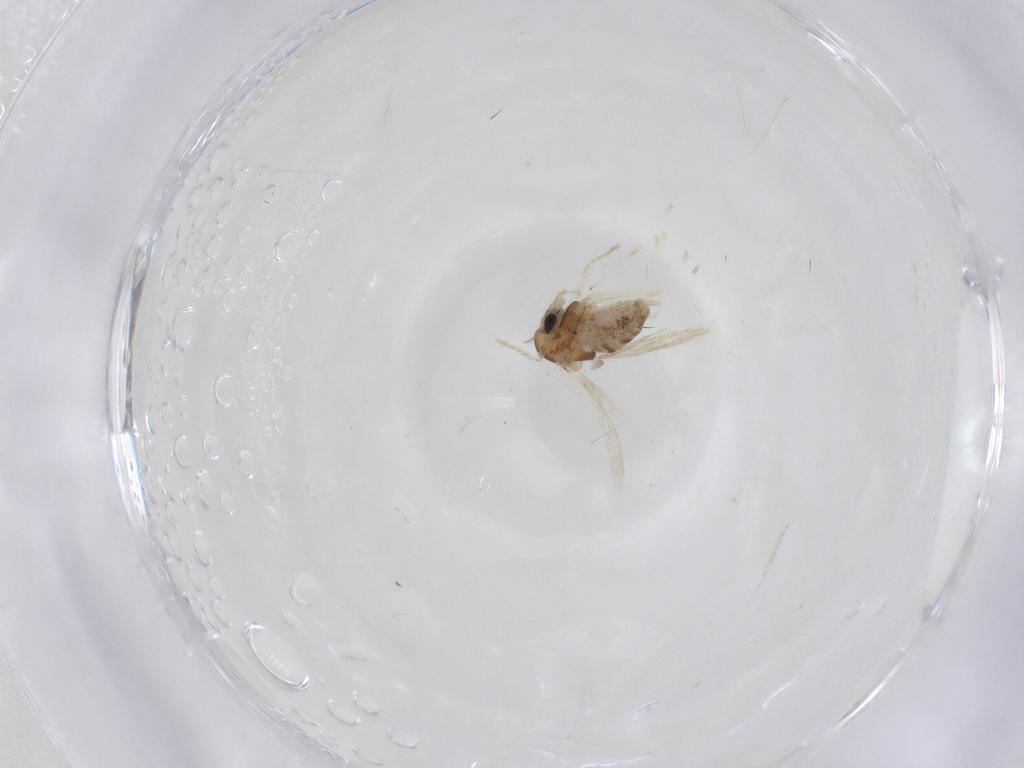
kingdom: Animalia
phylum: Arthropoda
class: Insecta
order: Diptera
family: Chironomidae
